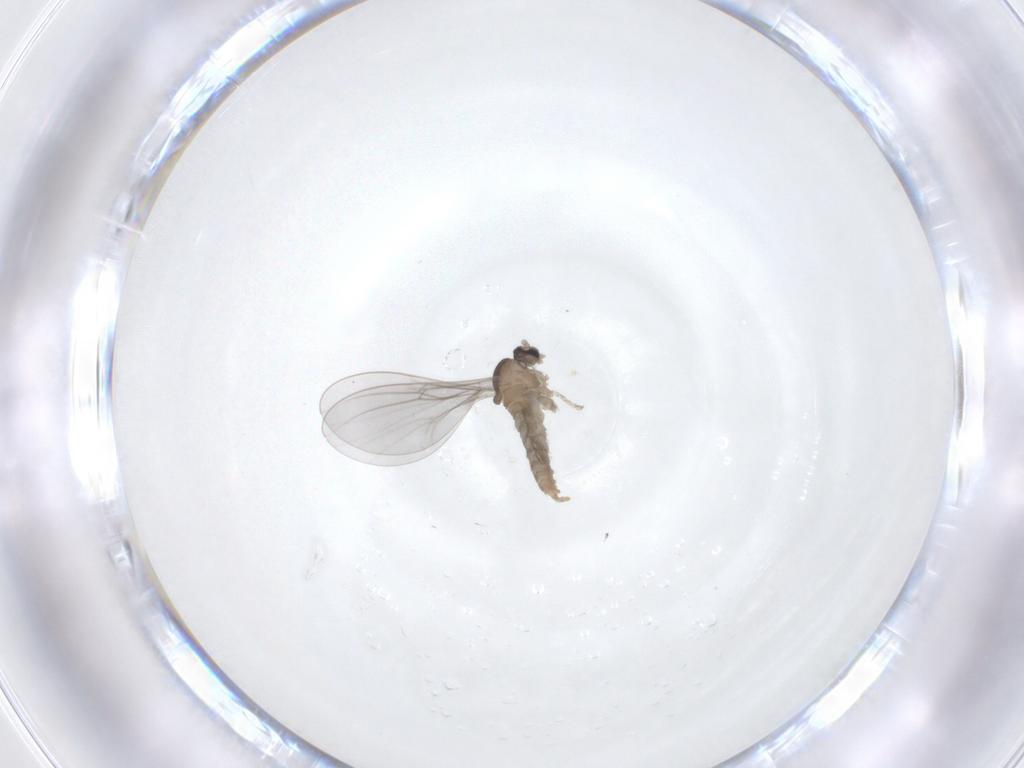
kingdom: Animalia
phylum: Arthropoda
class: Insecta
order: Diptera
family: Cecidomyiidae
